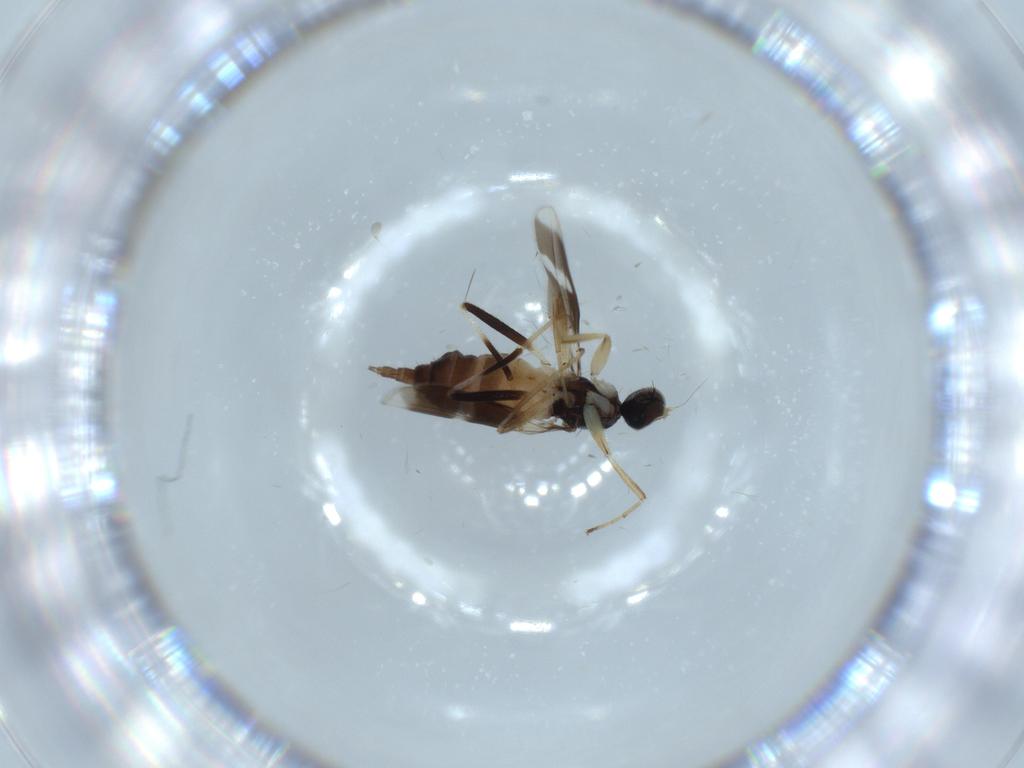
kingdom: Animalia
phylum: Arthropoda
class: Insecta
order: Diptera
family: Hybotidae
